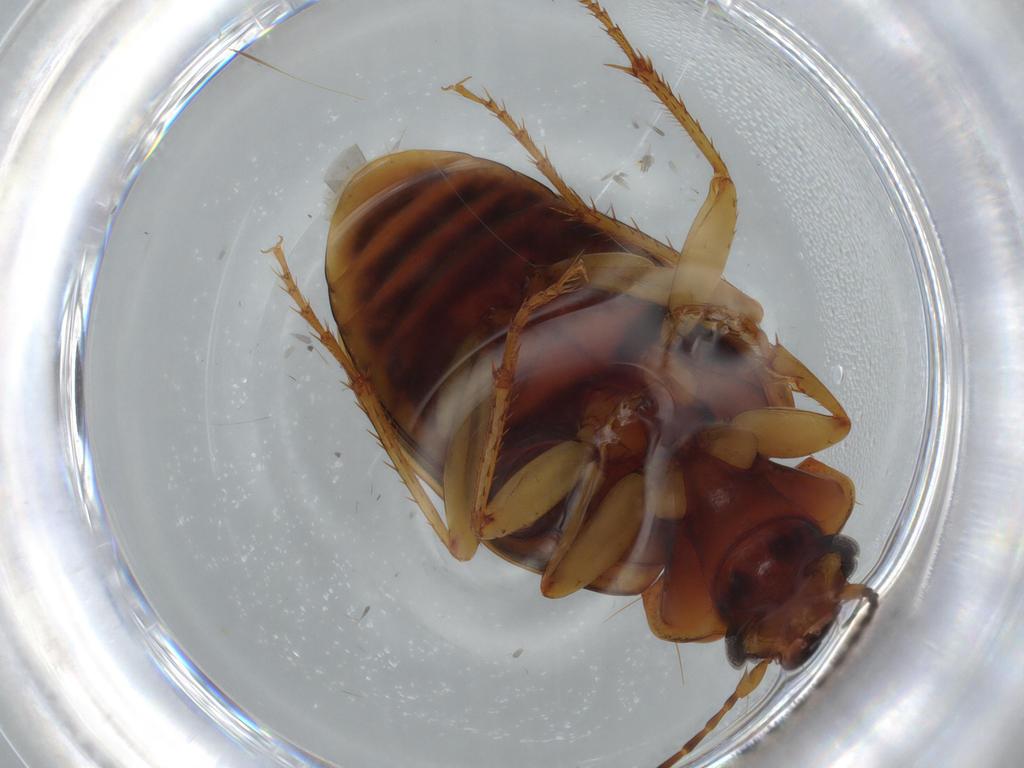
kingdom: Animalia
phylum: Arthropoda
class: Insecta
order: Coleoptera
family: Carabidae
